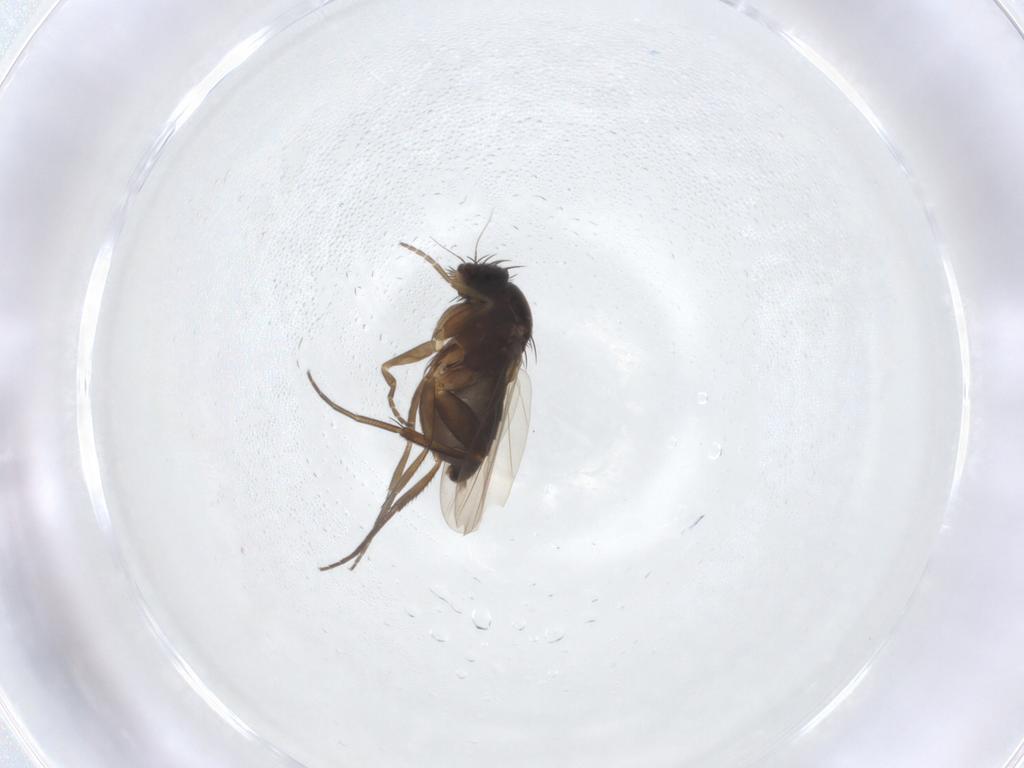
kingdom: Animalia
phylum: Arthropoda
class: Insecta
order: Diptera
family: Phoridae
